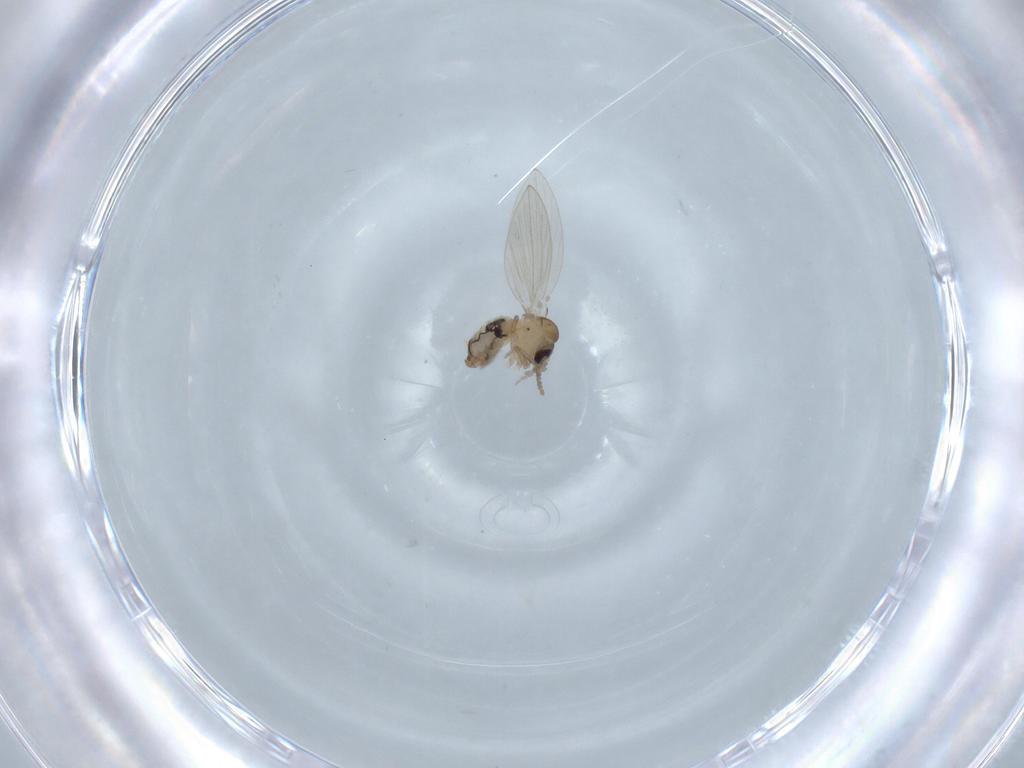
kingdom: Animalia
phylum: Arthropoda
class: Insecta
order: Diptera
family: Psychodidae
